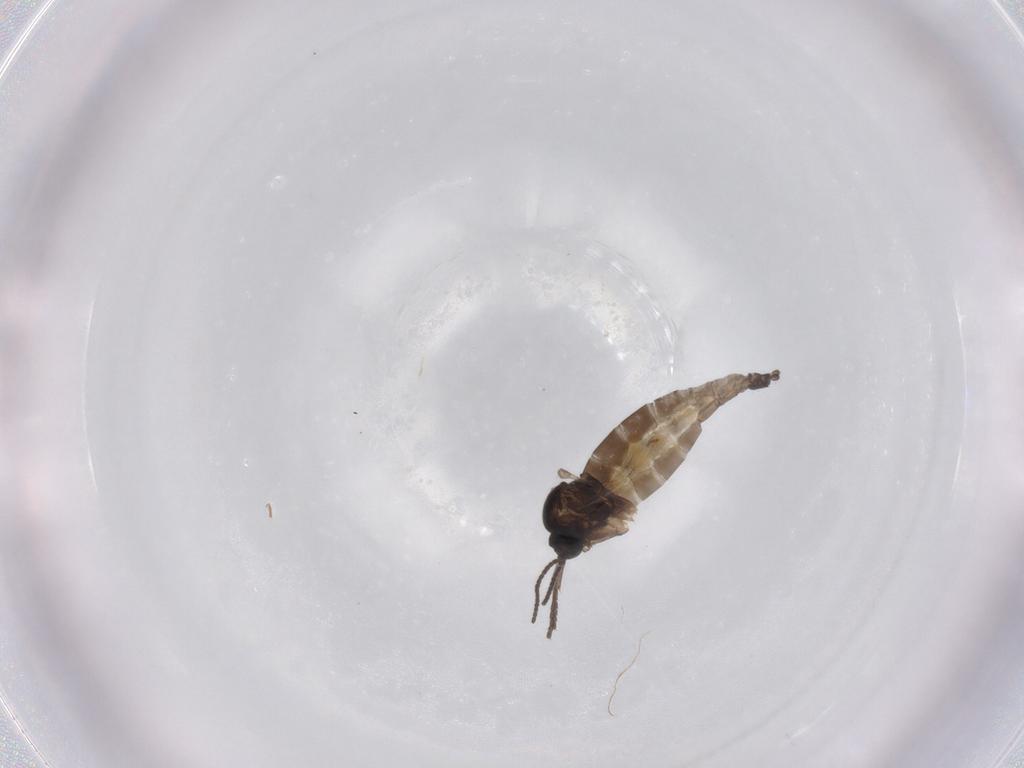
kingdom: Animalia
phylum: Arthropoda
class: Insecta
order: Diptera
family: Sciaridae
